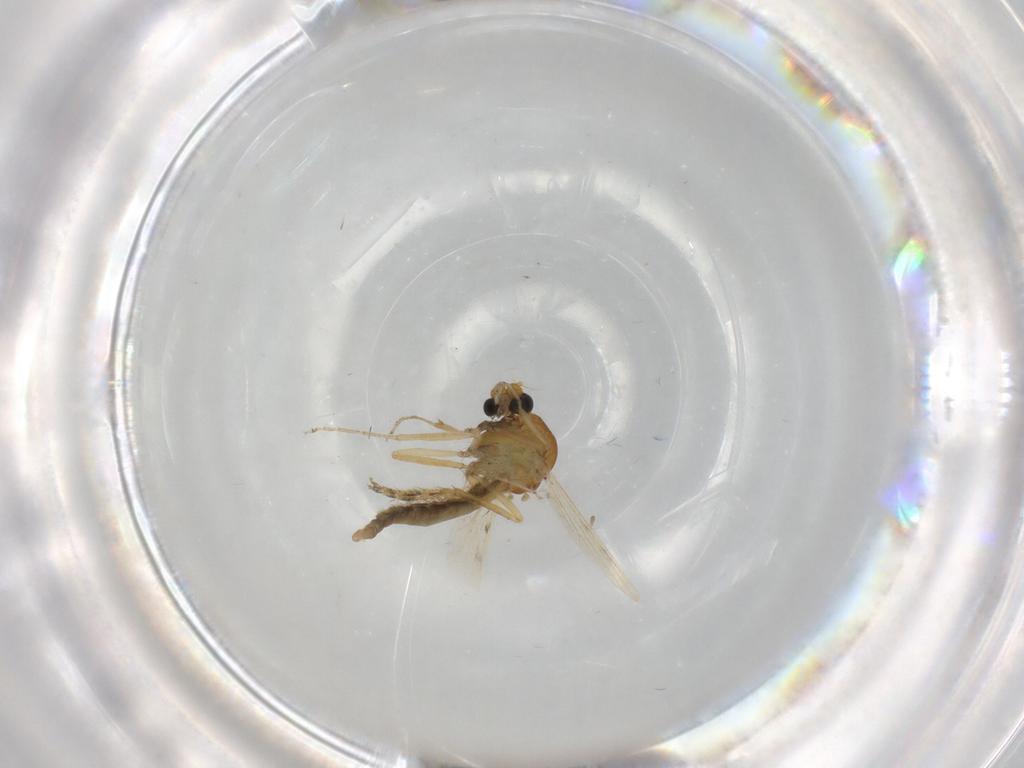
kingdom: Animalia
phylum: Arthropoda
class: Insecta
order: Diptera
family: Ceratopogonidae
